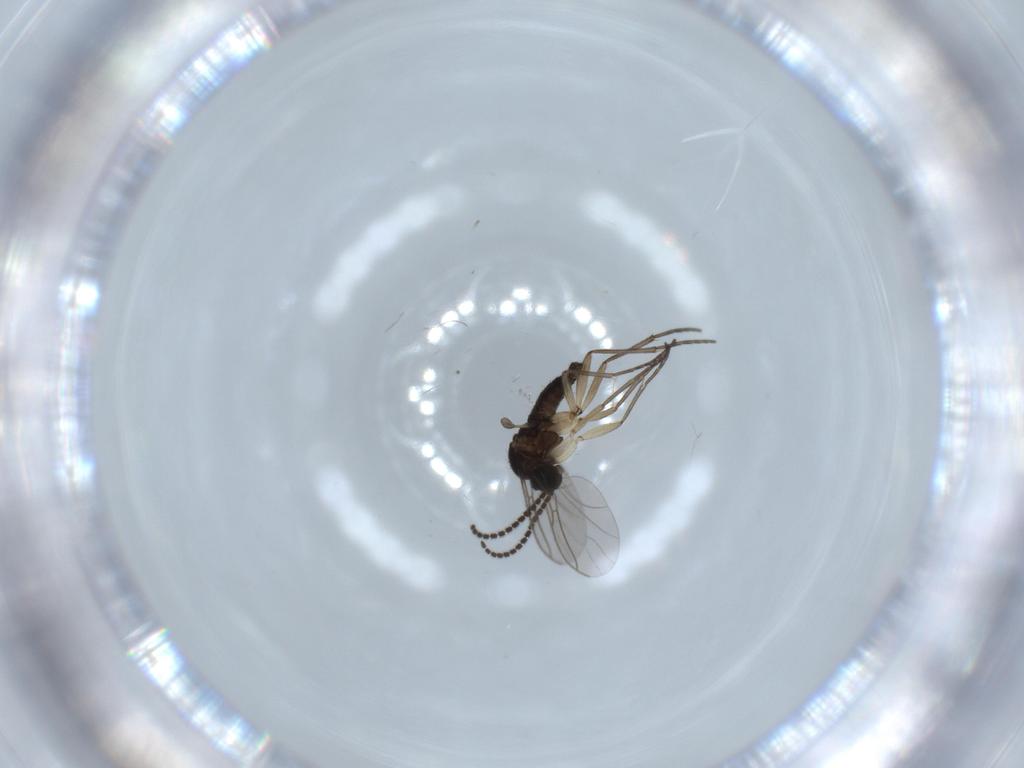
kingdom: Animalia
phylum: Arthropoda
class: Insecta
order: Diptera
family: Sciaridae
